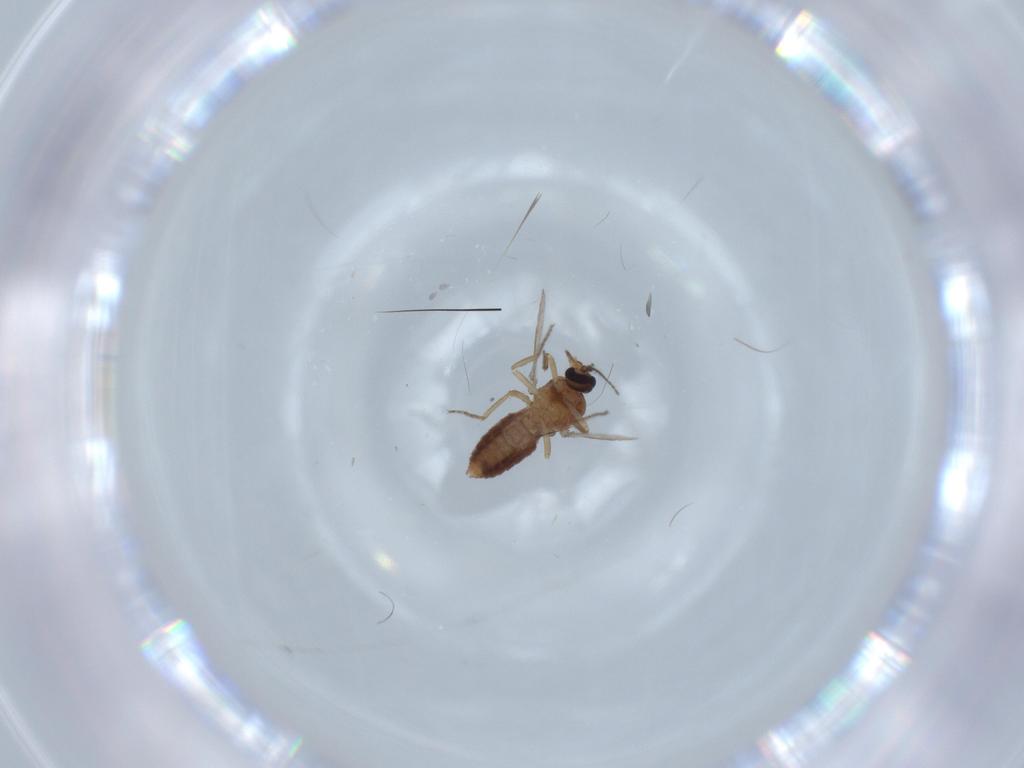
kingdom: Animalia
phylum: Arthropoda
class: Insecta
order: Diptera
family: Ceratopogonidae
